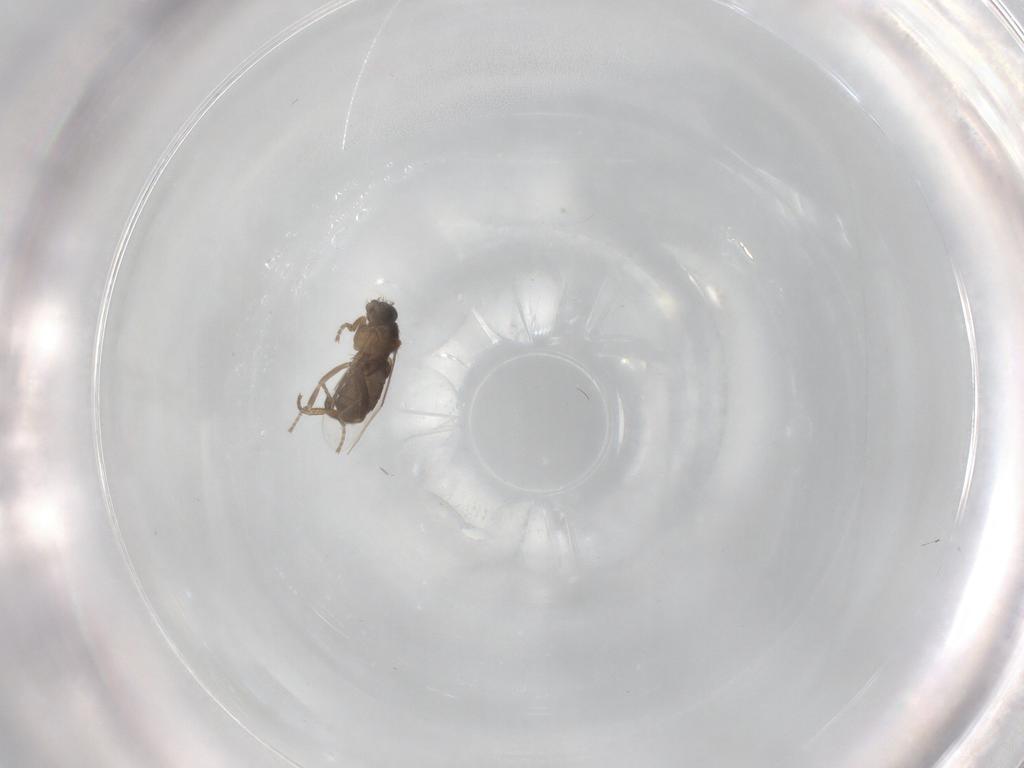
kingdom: Animalia
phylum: Arthropoda
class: Insecta
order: Diptera
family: Phoridae
